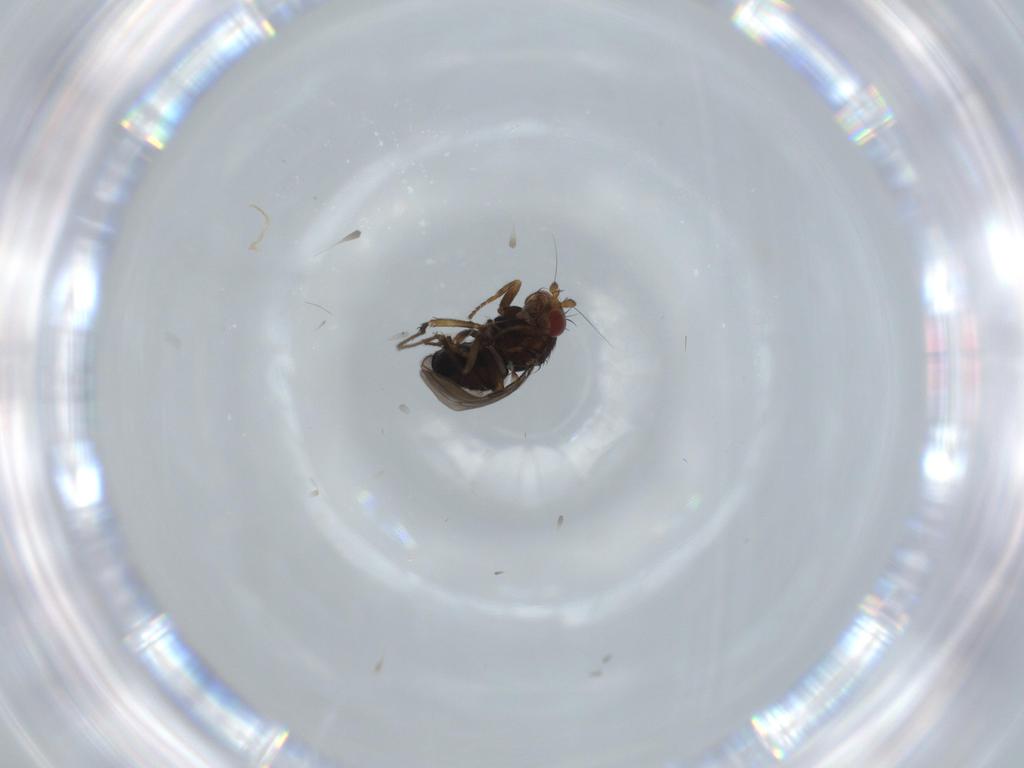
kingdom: Animalia
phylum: Arthropoda
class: Insecta
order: Diptera
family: Sphaeroceridae
